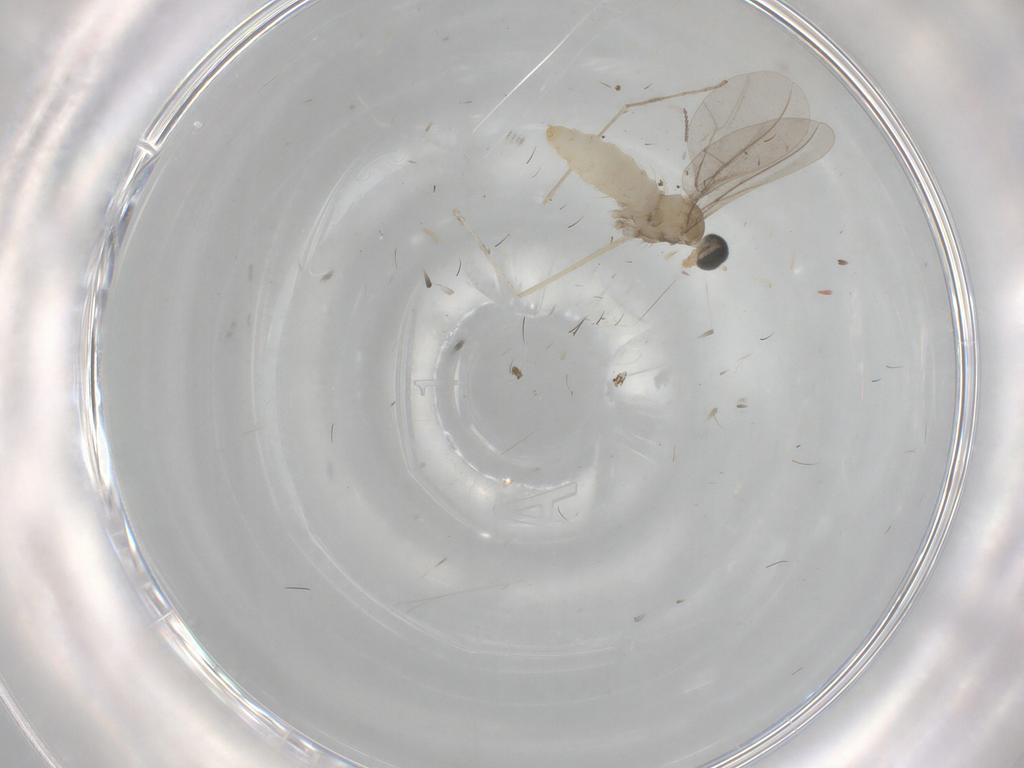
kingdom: Animalia
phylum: Arthropoda
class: Insecta
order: Diptera
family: Cecidomyiidae
